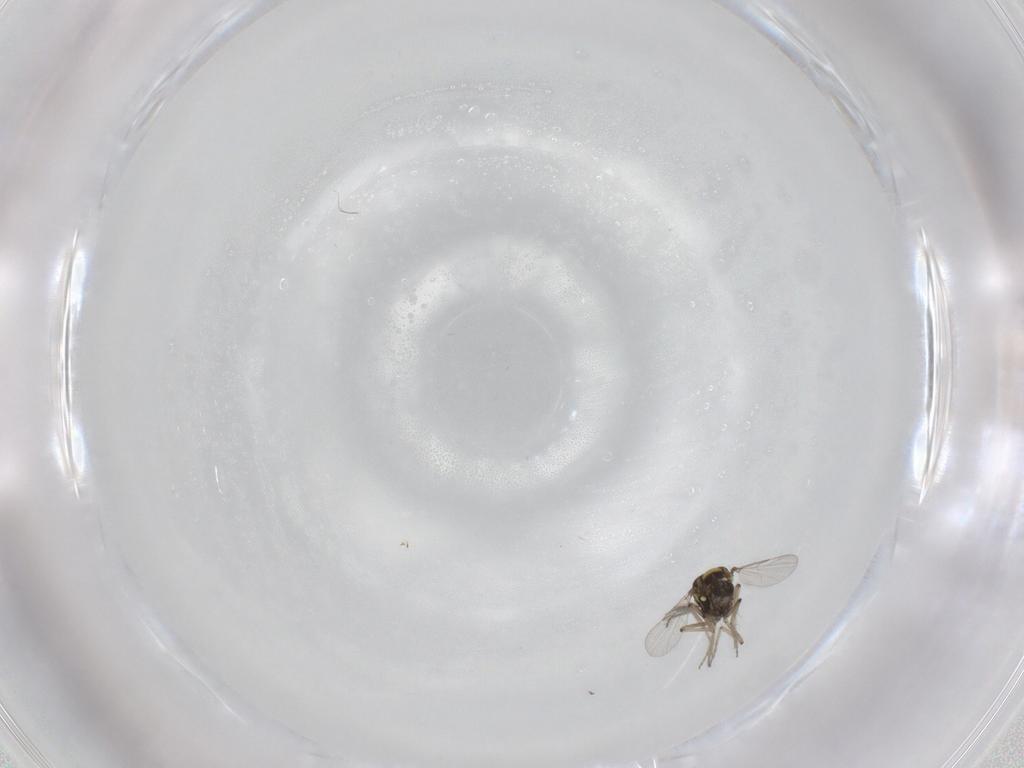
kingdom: Animalia
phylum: Arthropoda
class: Insecta
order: Diptera
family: Ceratopogonidae
